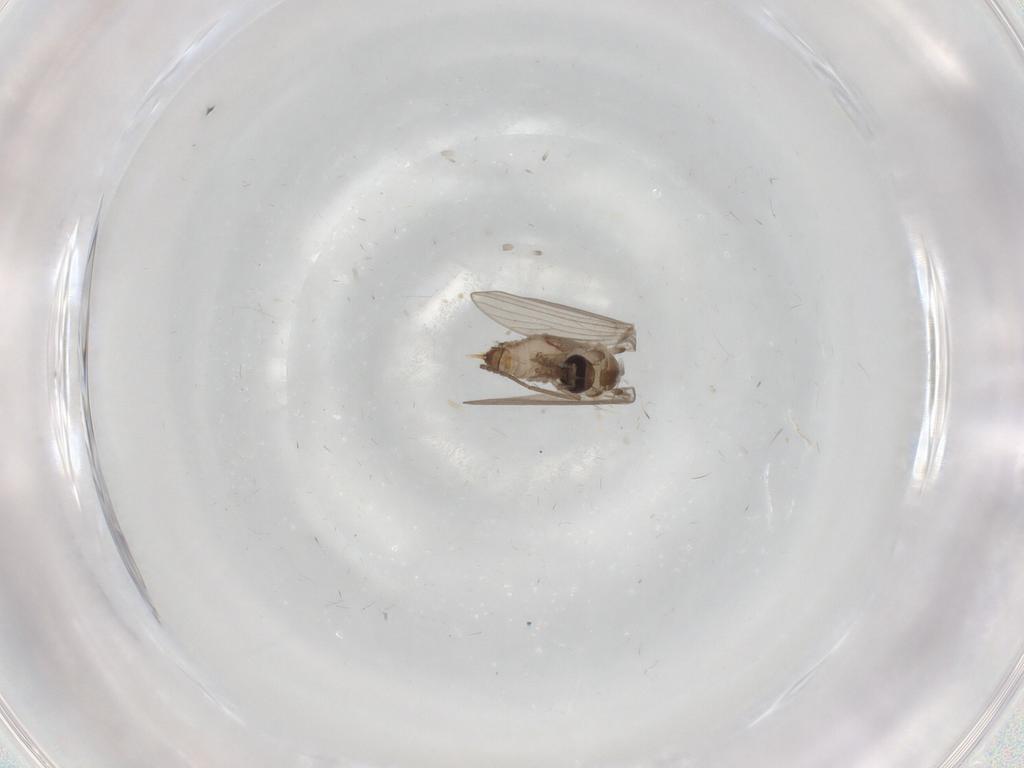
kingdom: Animalia
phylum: Arthropoda
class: Insecta
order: Diptera
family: Psychodidae
